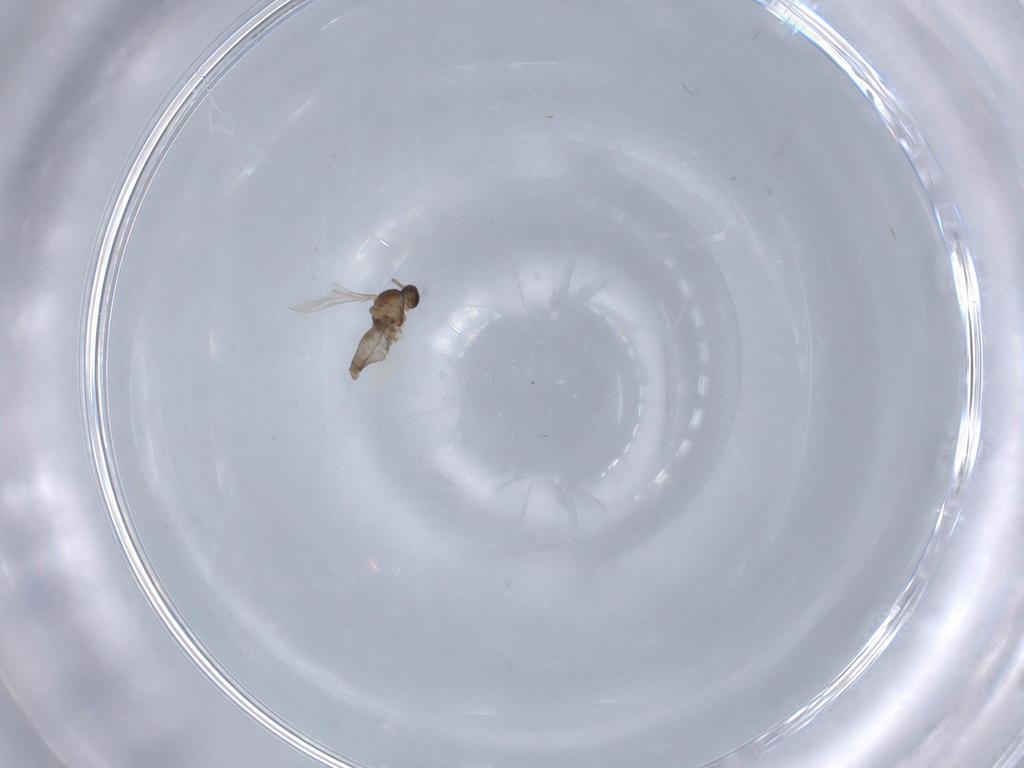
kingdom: Animalia
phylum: Arthropoda
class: Insecta
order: Diptera
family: Cecidomyiidae
